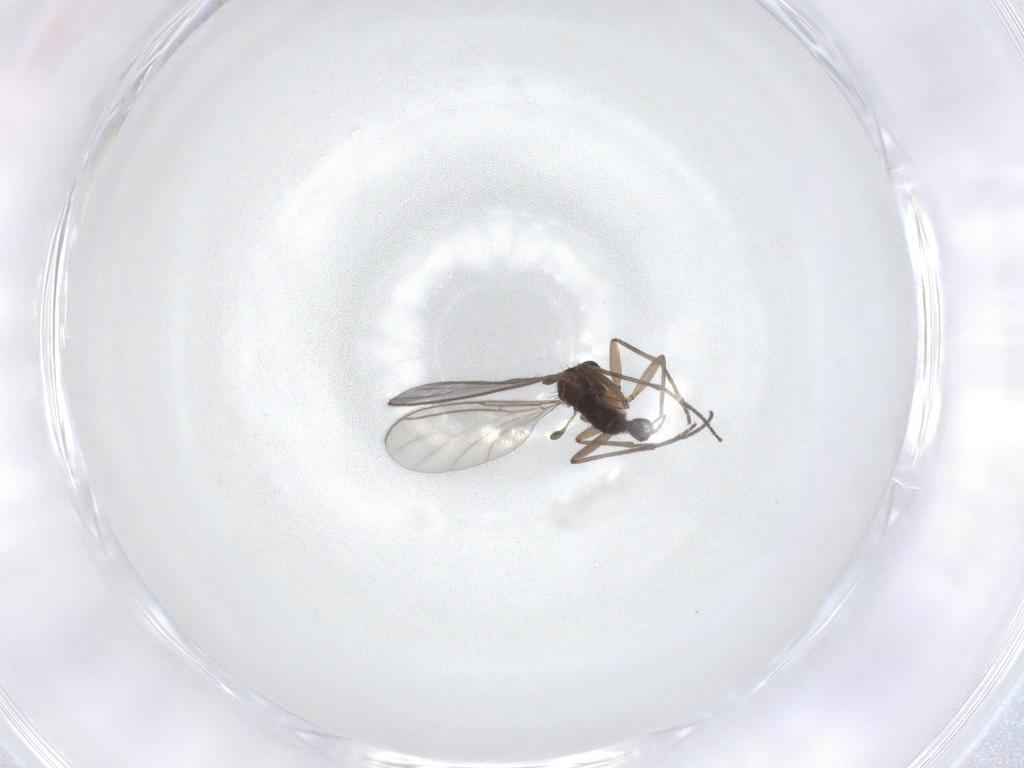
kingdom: Animalia
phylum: Arthropoda
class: Insecta
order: Diptera
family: Sciaridae
